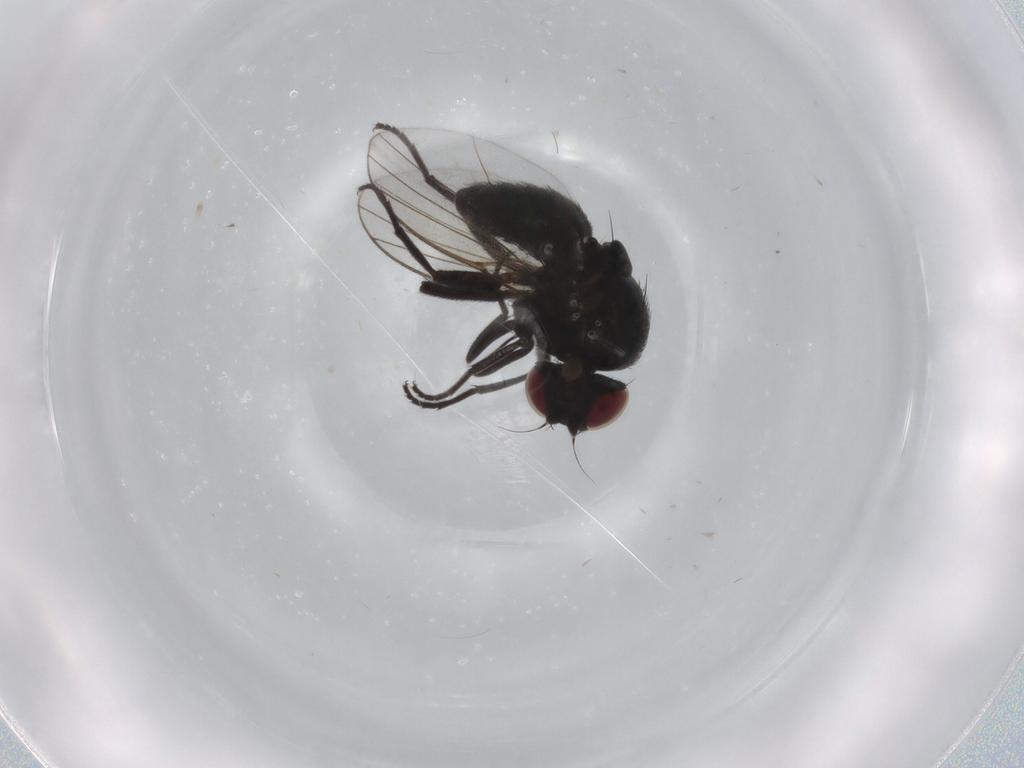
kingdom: Animalia
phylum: Arthropoda
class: Insecta
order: Diptera
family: Agromyzidae
